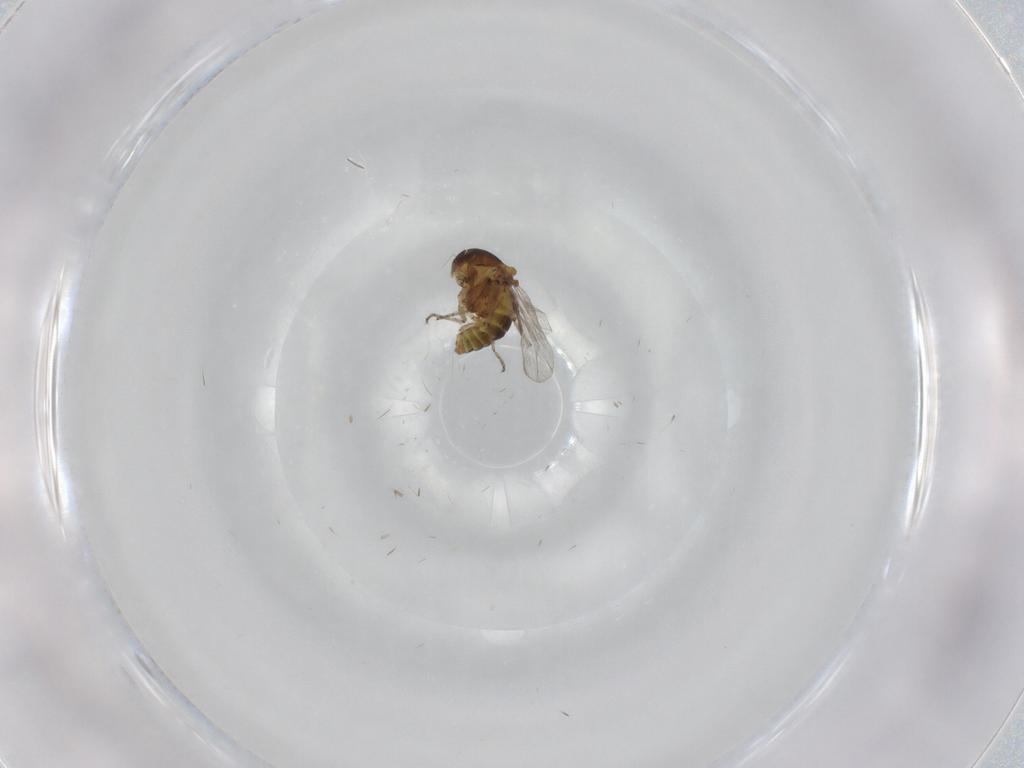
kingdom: Animalia
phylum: Arthropoda
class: Insecta
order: Diptera
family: Ceratopogonidae
